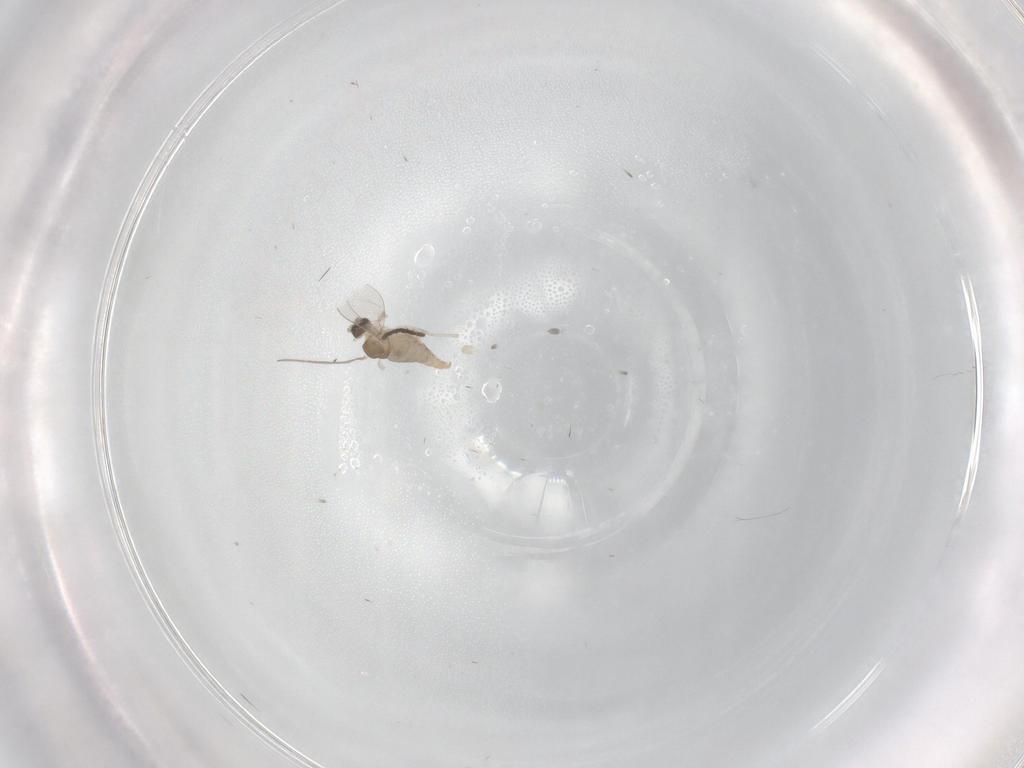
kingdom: Animalia
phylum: Arthropoda
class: Insecta
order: Diptera
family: Cecidomyiidae
